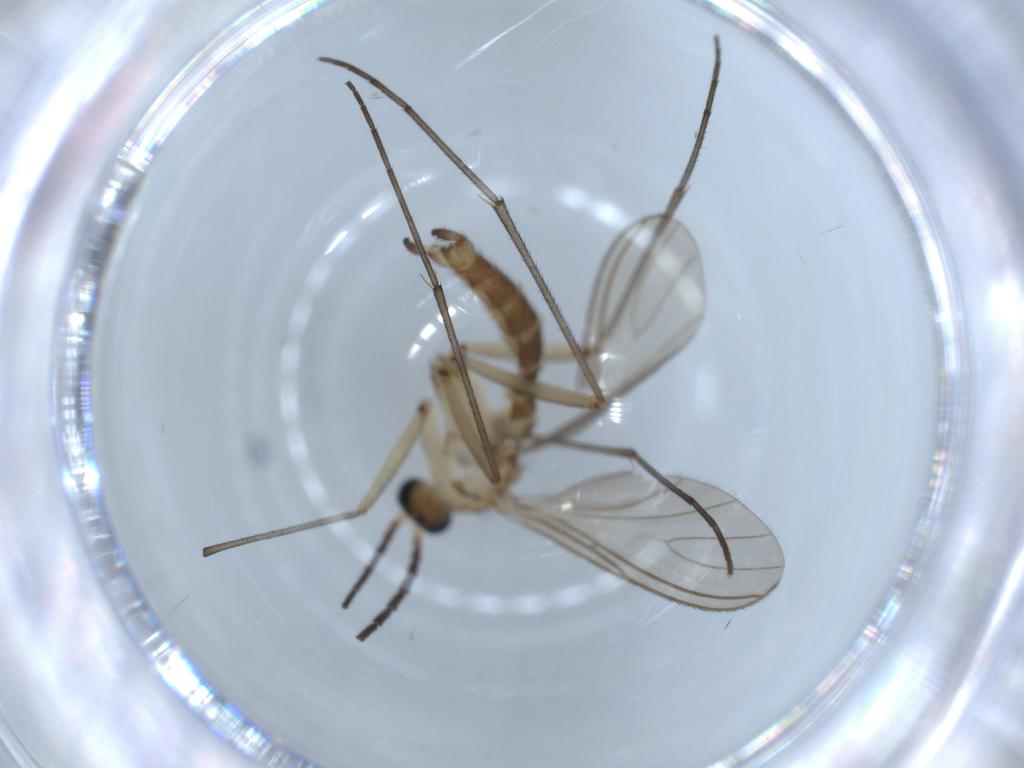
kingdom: Animalia
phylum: Arthropoda
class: Insecta
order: Diptera
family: Sciaridae
